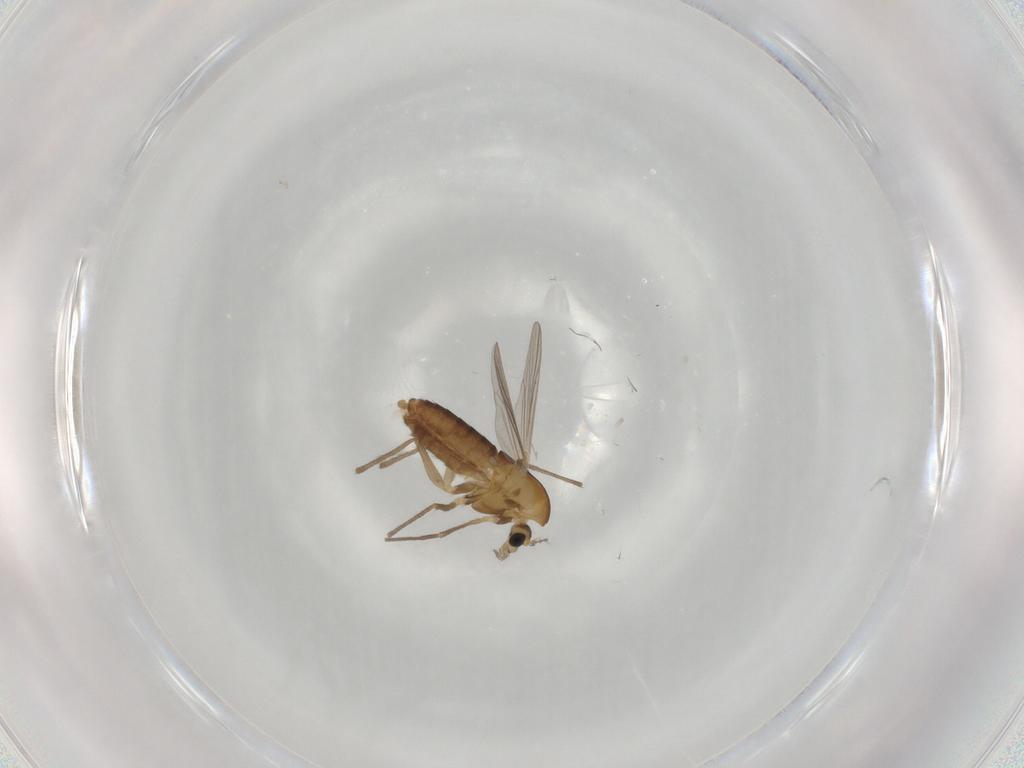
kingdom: Animalia
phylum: Arthropoda
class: Insecta
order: Diptera
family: Chironomidae
